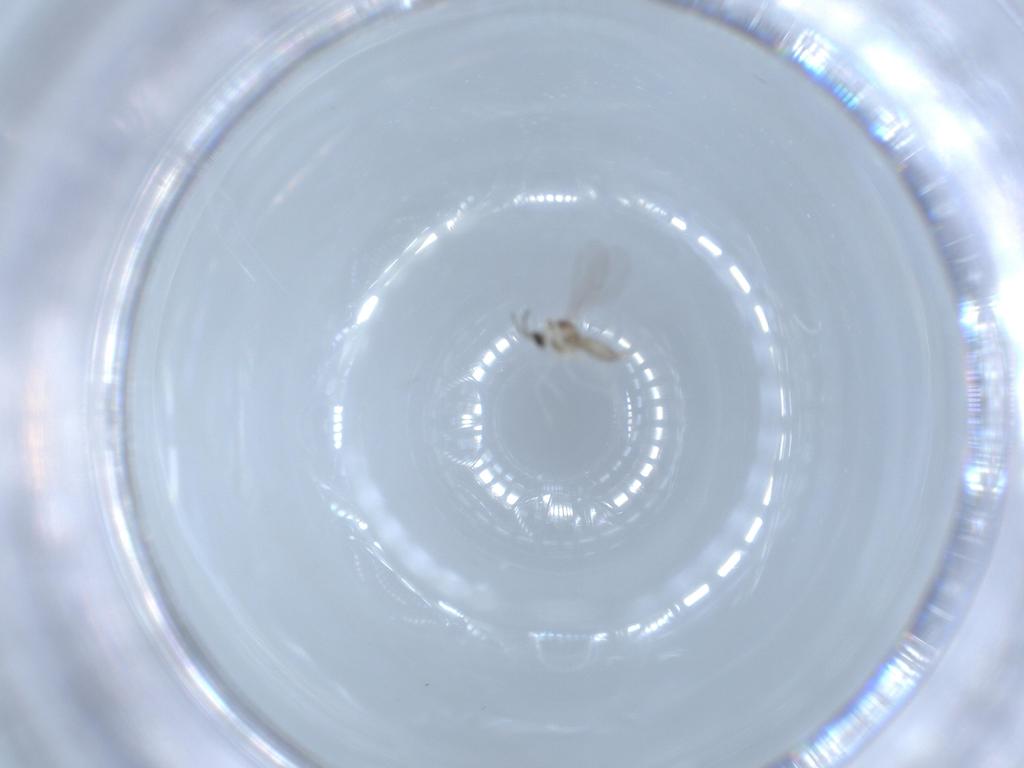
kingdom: Animalia
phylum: Arthropoda
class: Insecta
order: Diptera
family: Cecidomyiidae
